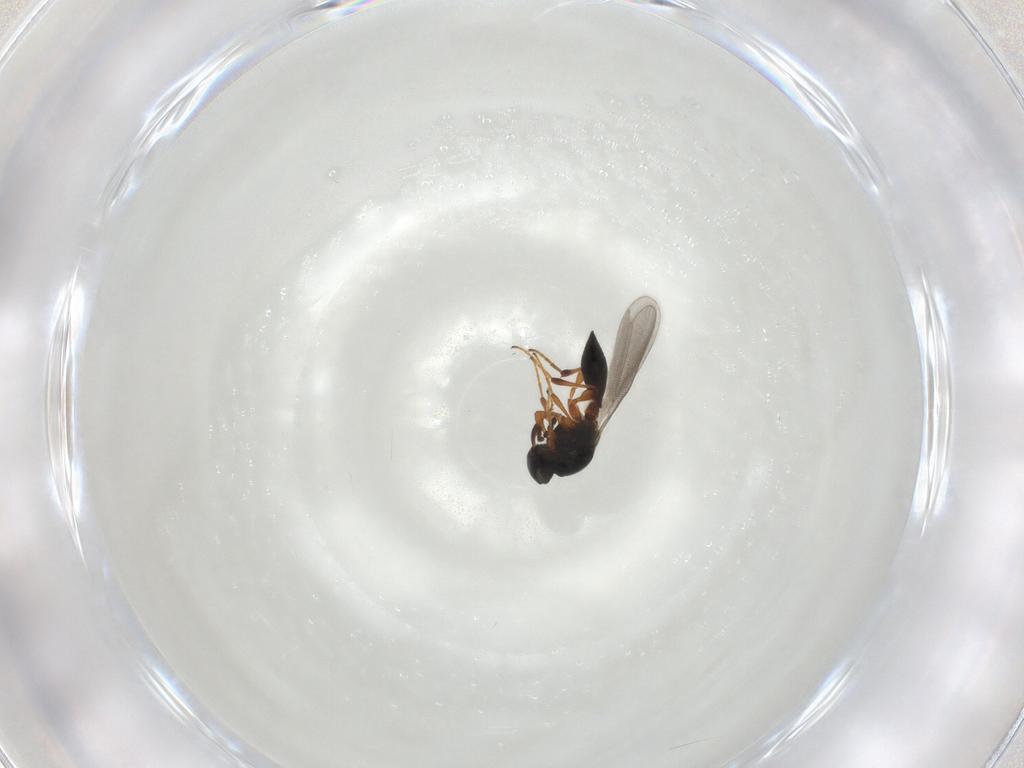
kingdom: Animalia
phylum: Arthropoda
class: Insecta
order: Hymenoptera
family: Platygastridae
